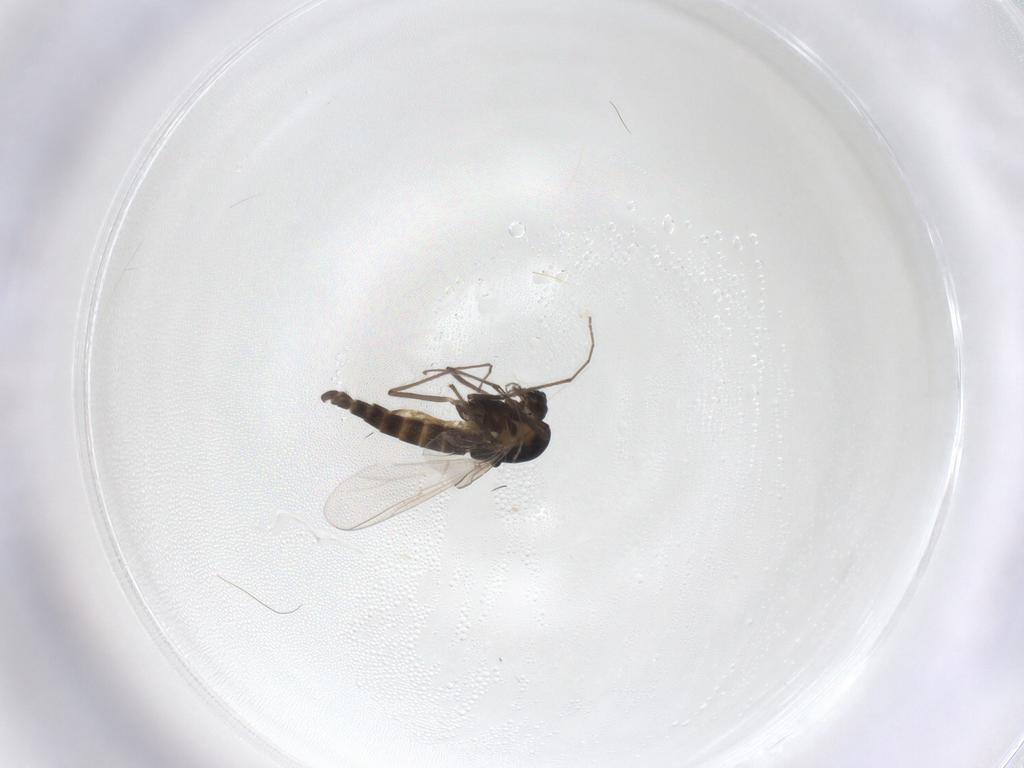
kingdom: Animalia
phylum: Arthropoda
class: Insecta
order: Diptera
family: Chironomidae
